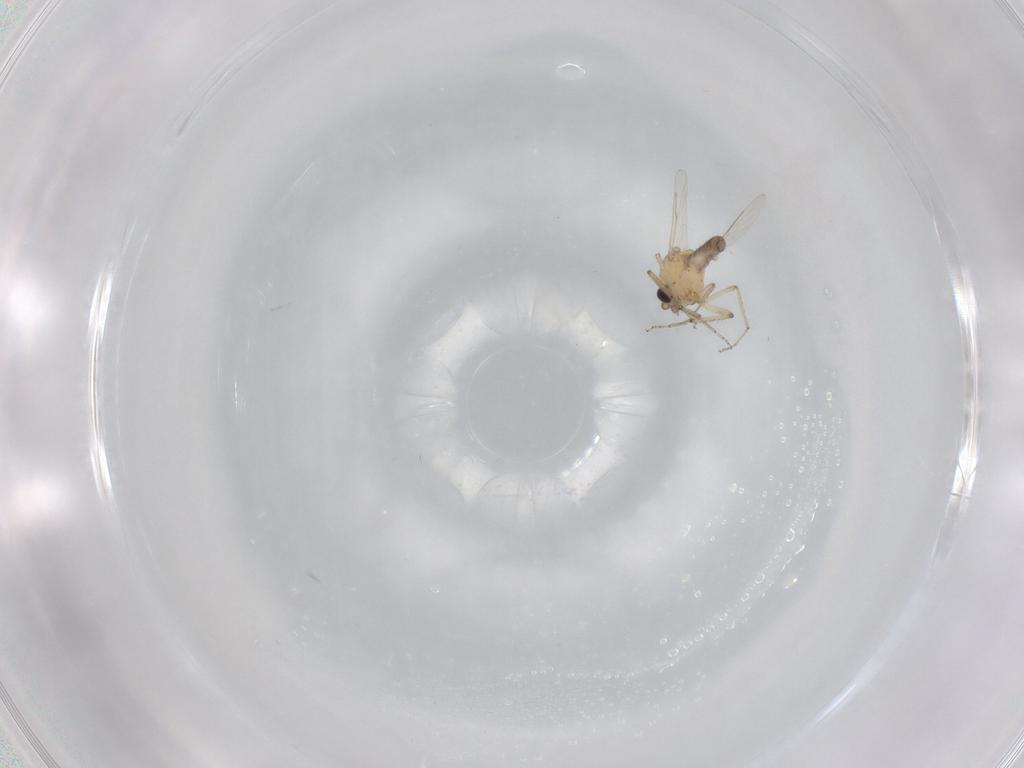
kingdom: Animalia
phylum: Arthropoda
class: Insecta
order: Diptera
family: Ceratopogonidae
